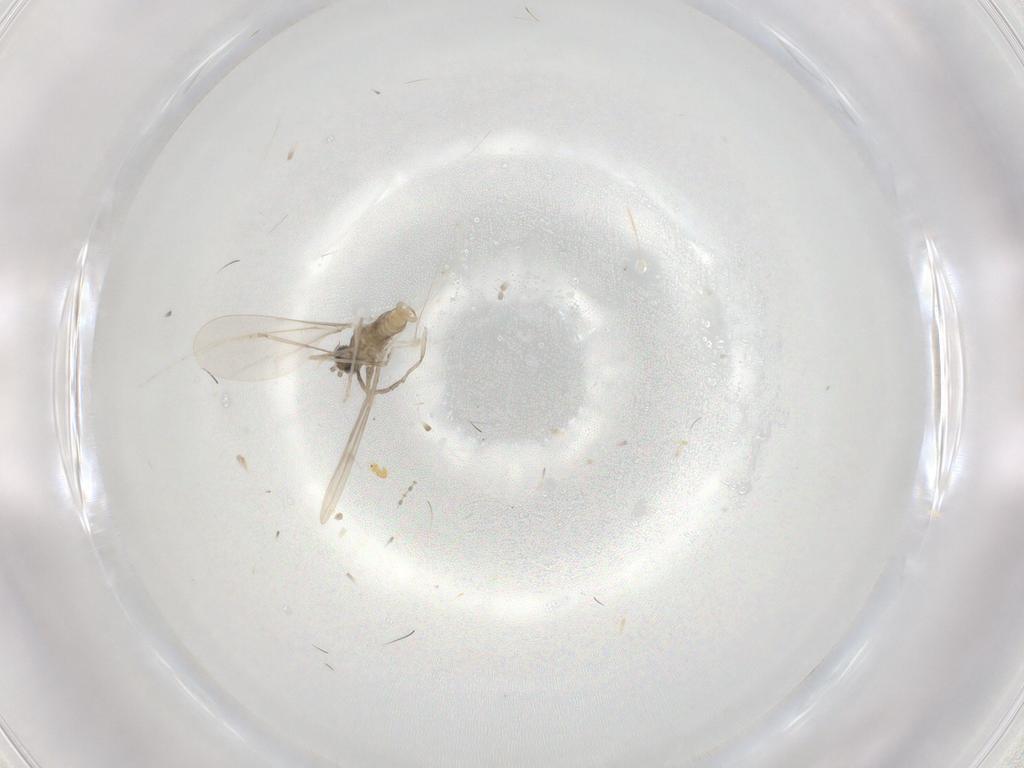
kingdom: Animalia
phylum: Arthropoda
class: Insecta
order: Diptera
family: Cecidomyiidae
